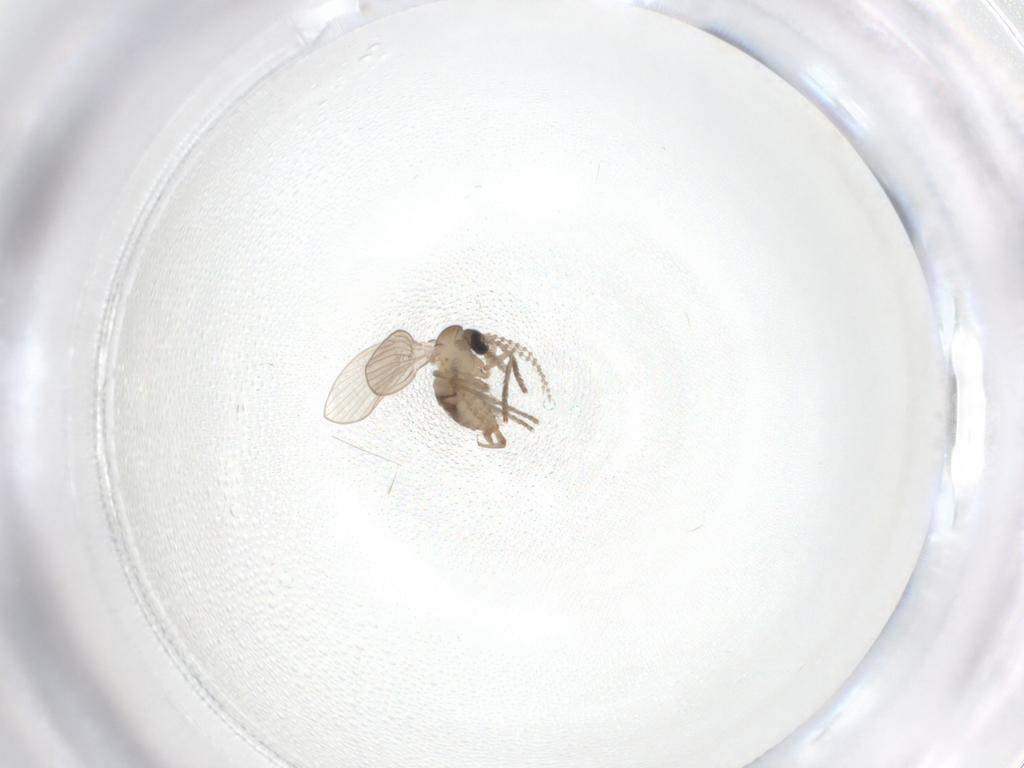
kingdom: Animalia
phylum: Arthropoda
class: Insecta
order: Diptera
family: Psychodidae
